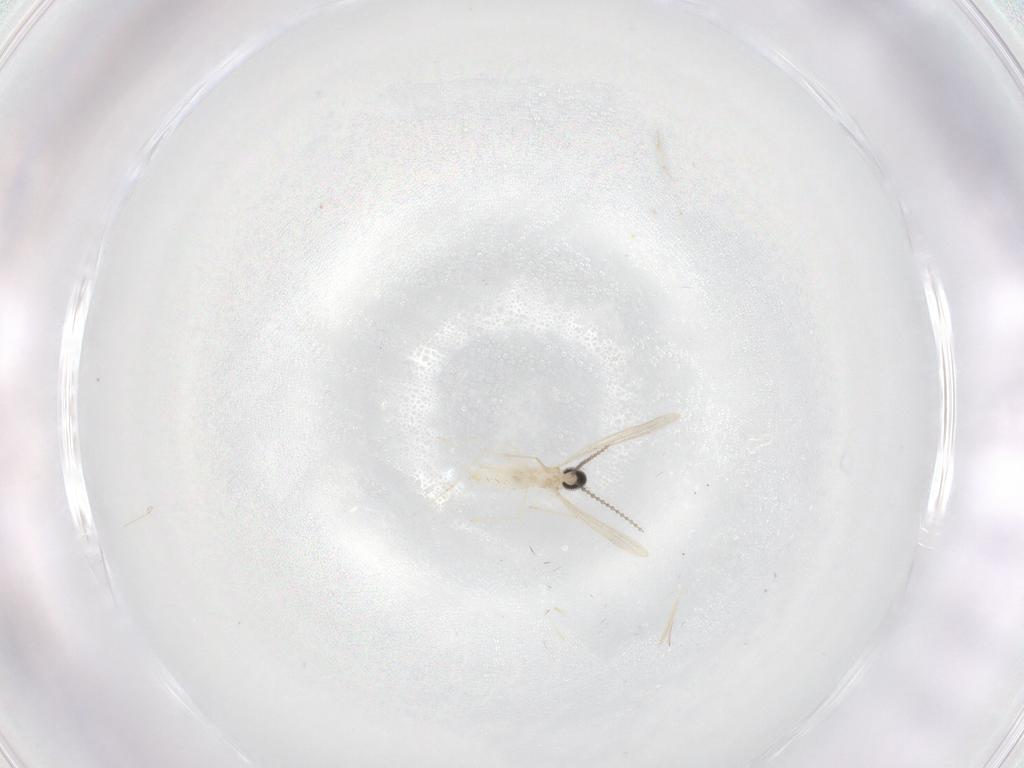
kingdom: Animalia
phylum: Arthropoda
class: Insecta
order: Diptera
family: Cecidomyiidae
